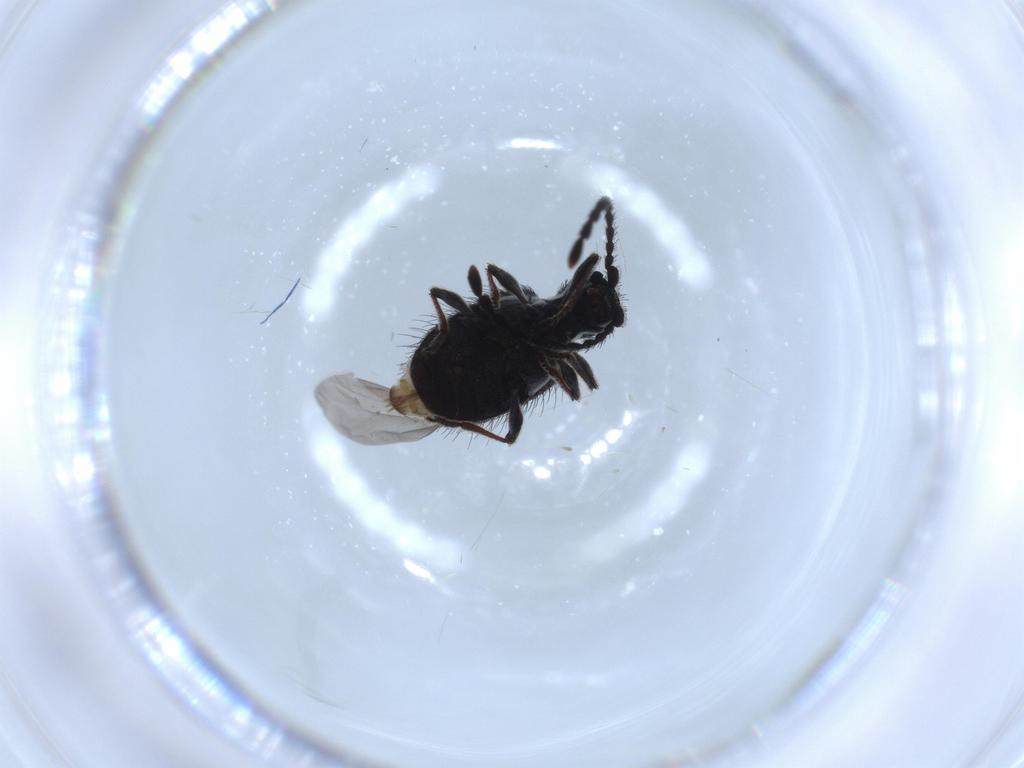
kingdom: Animalia
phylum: Arthropoda
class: Insecta
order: Coleoptera
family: Ptinidae
